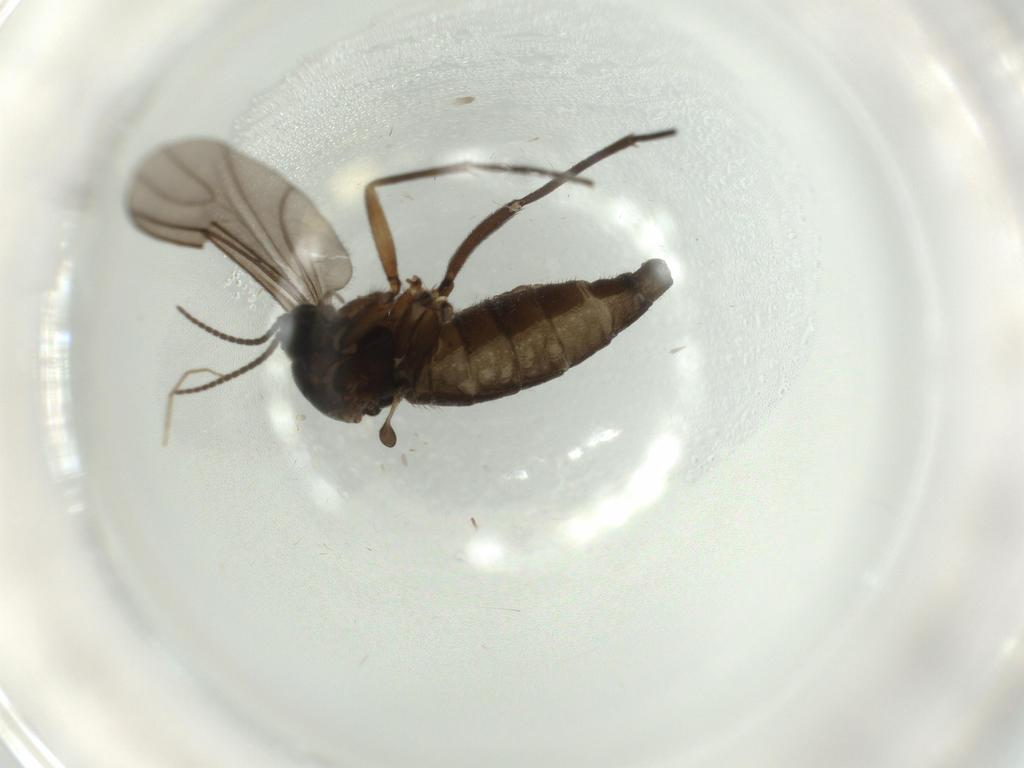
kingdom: Animalia
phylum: Arthropoda
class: Insecta
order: Diptera
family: Sciaridae
